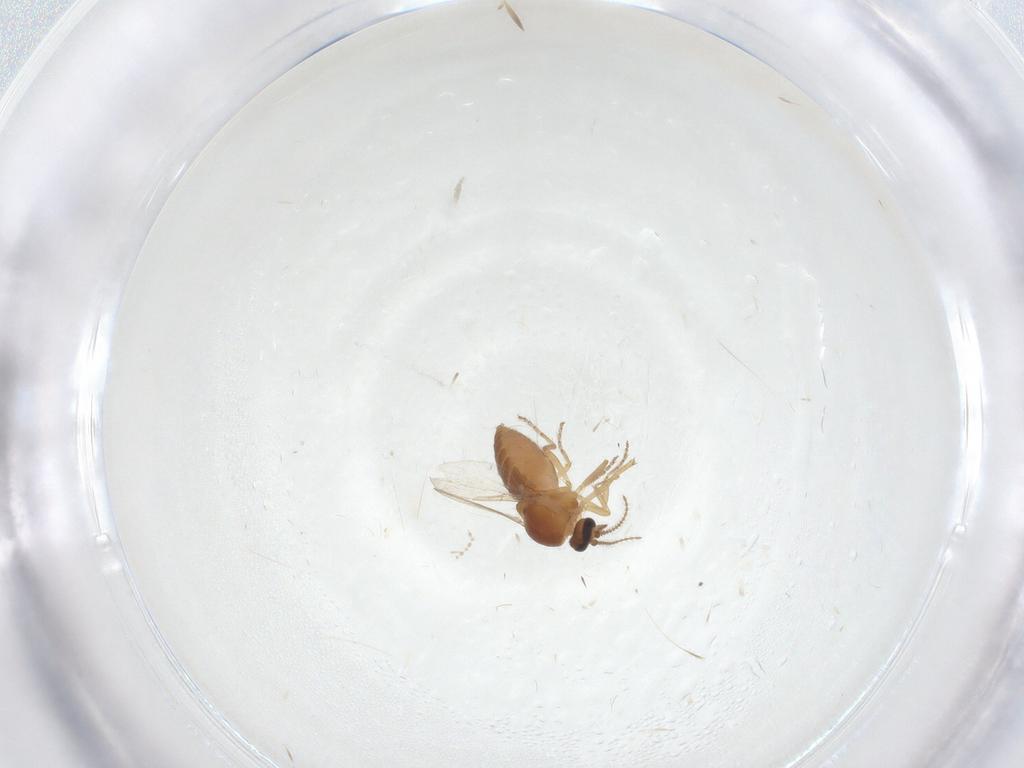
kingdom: Animalia
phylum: Arthropoda
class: Insecta
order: Diptera
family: Ceratopogonidae
